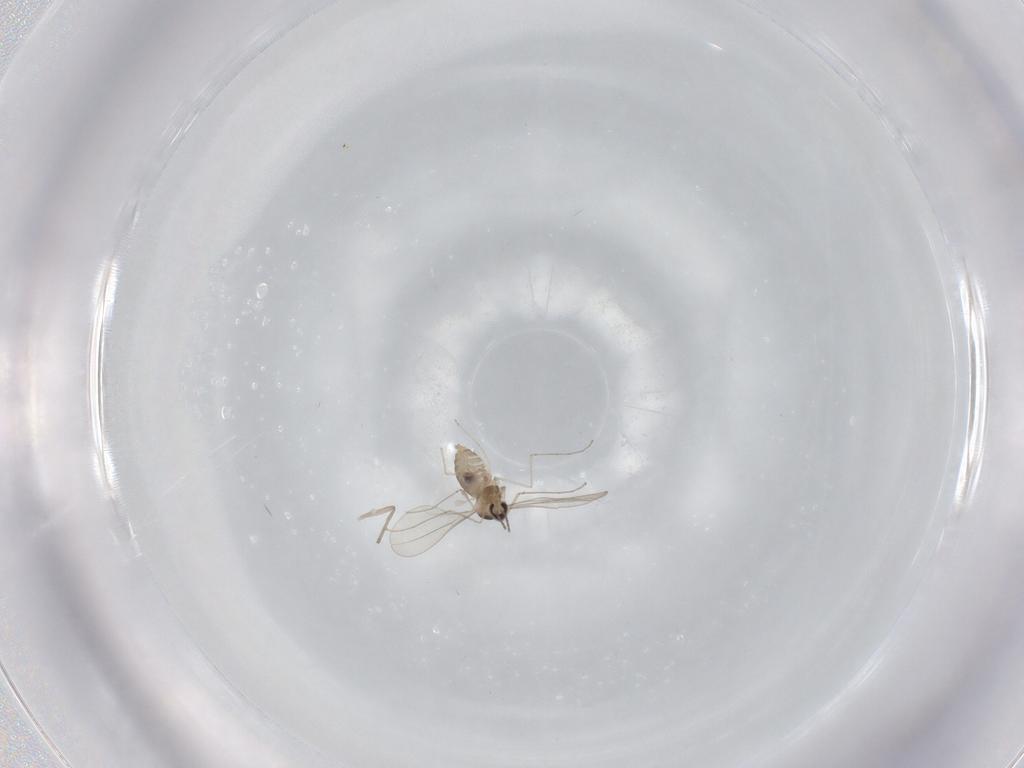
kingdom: Animalia
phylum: Arthropoda
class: Insecta
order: Diptera
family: Cecidomyiidae
